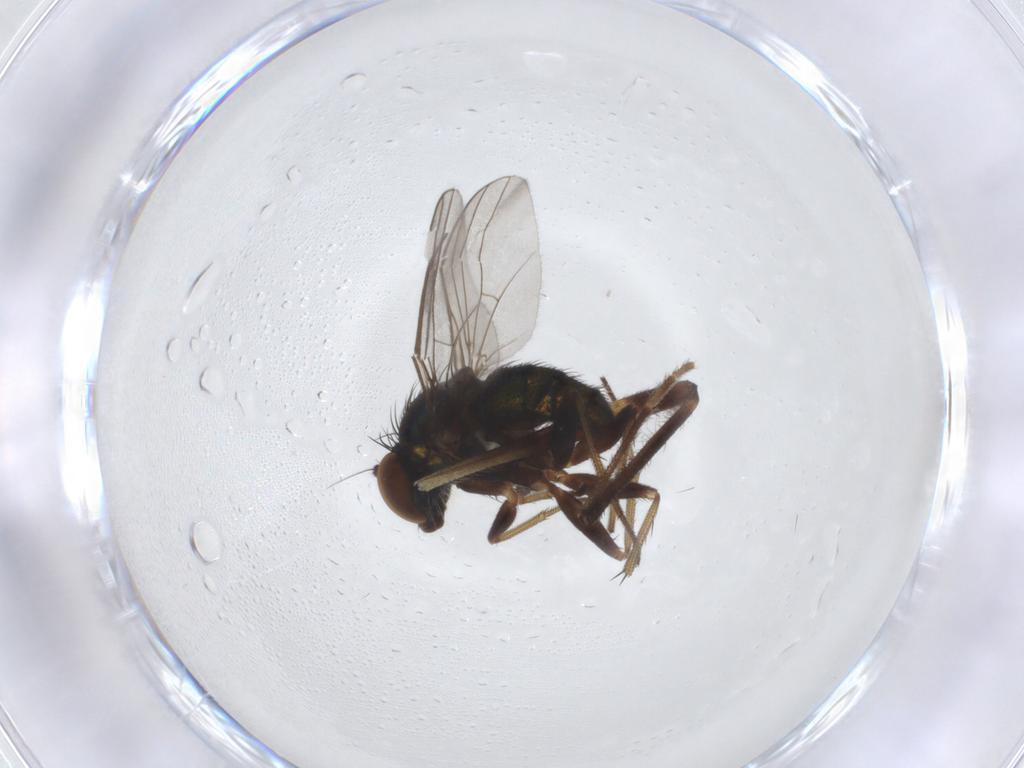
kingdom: Animalia
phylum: Arthropoda
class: Insecta
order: Diptera
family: Limoniidae
